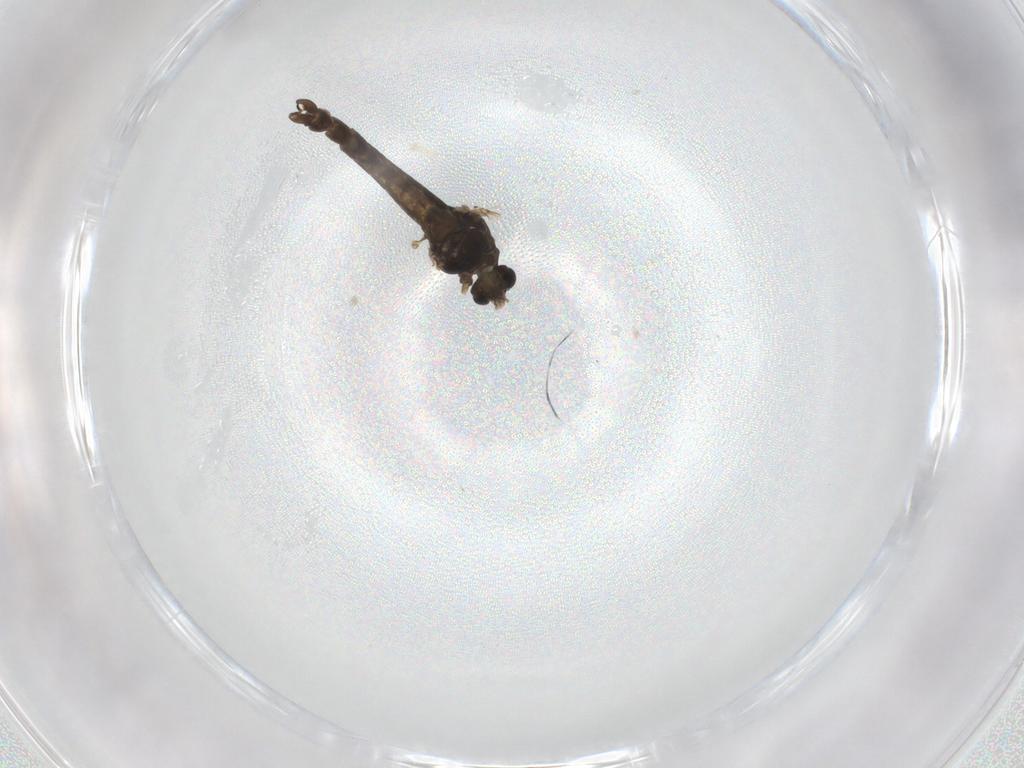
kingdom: Animalia
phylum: Arthropoda
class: Insecta
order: Diptera
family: Chironomidae
